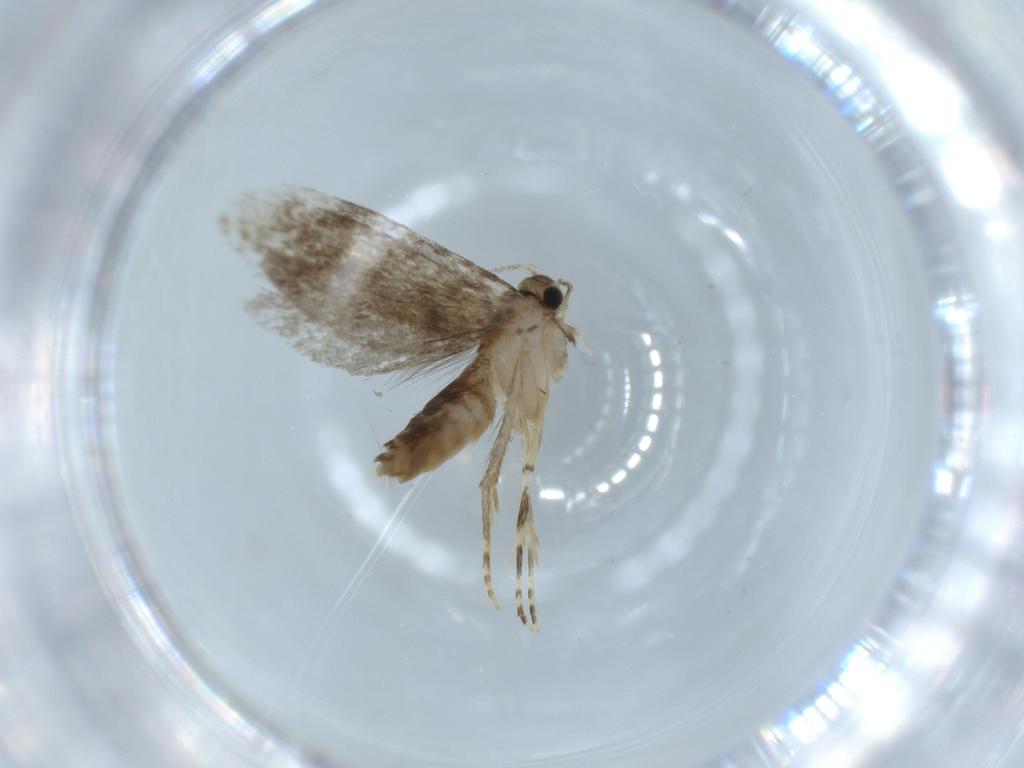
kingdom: Animalia
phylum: Arthropoda
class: Insecta
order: Lepidoptera
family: Tineidae
